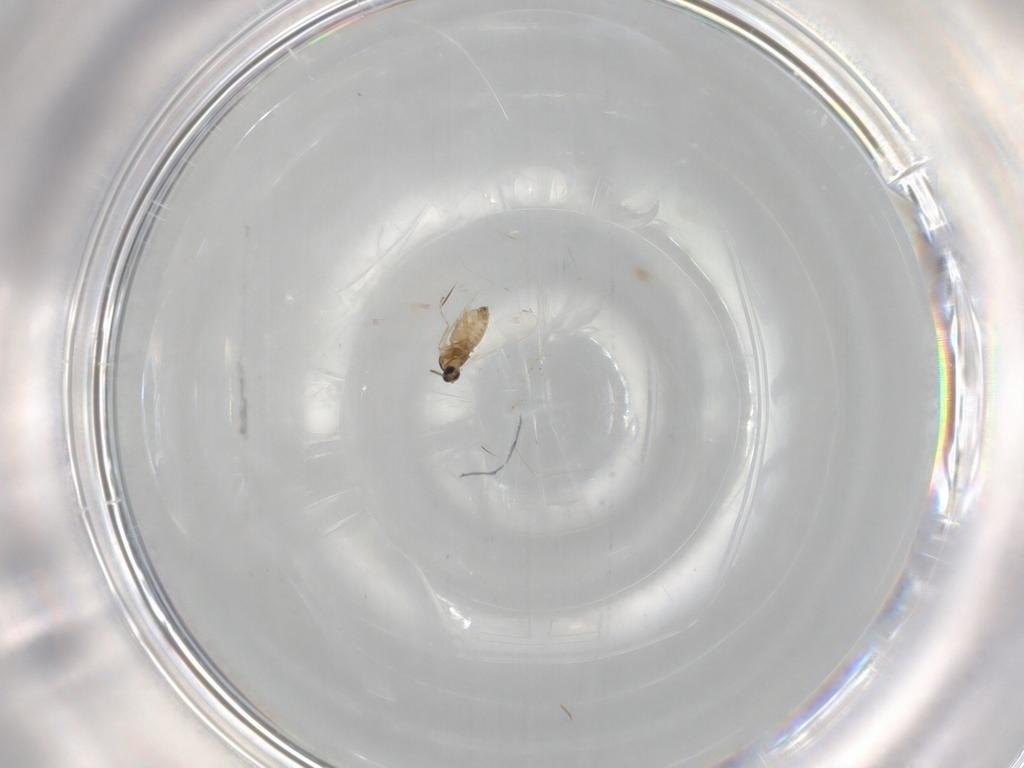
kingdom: Animalia
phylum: Arthropoda
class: Insecta
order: Diptera
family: Cecidomyiidae
